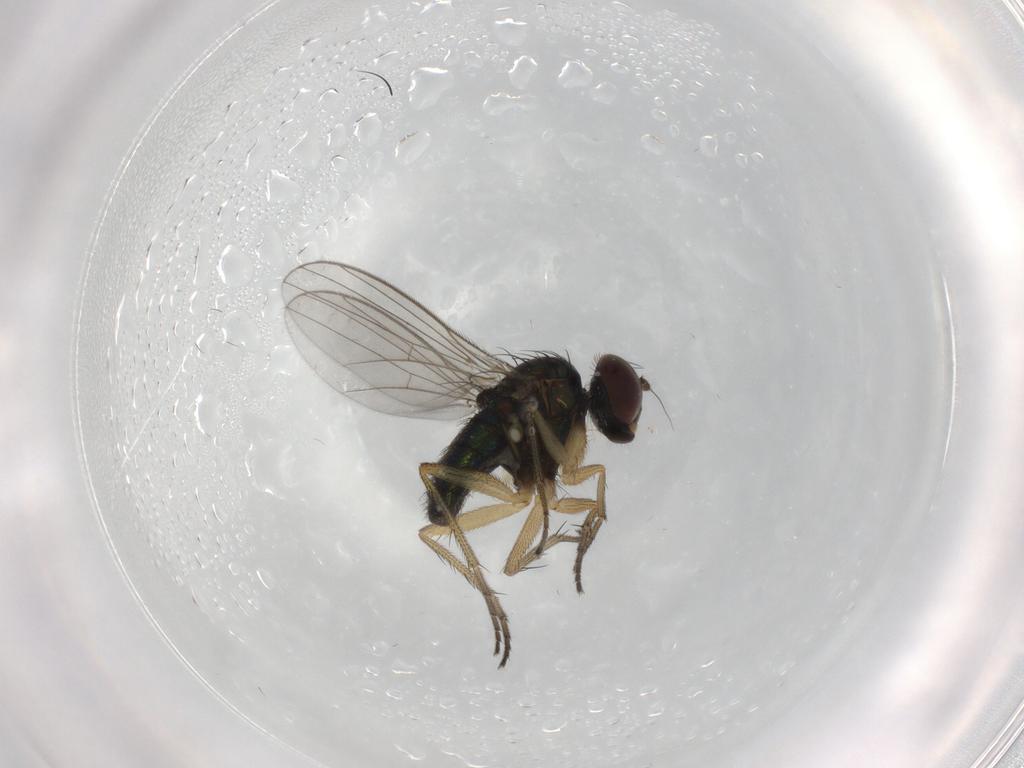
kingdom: Animalia
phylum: Arthropoda
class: Insecta
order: Diptera
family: Dolichopodidae
